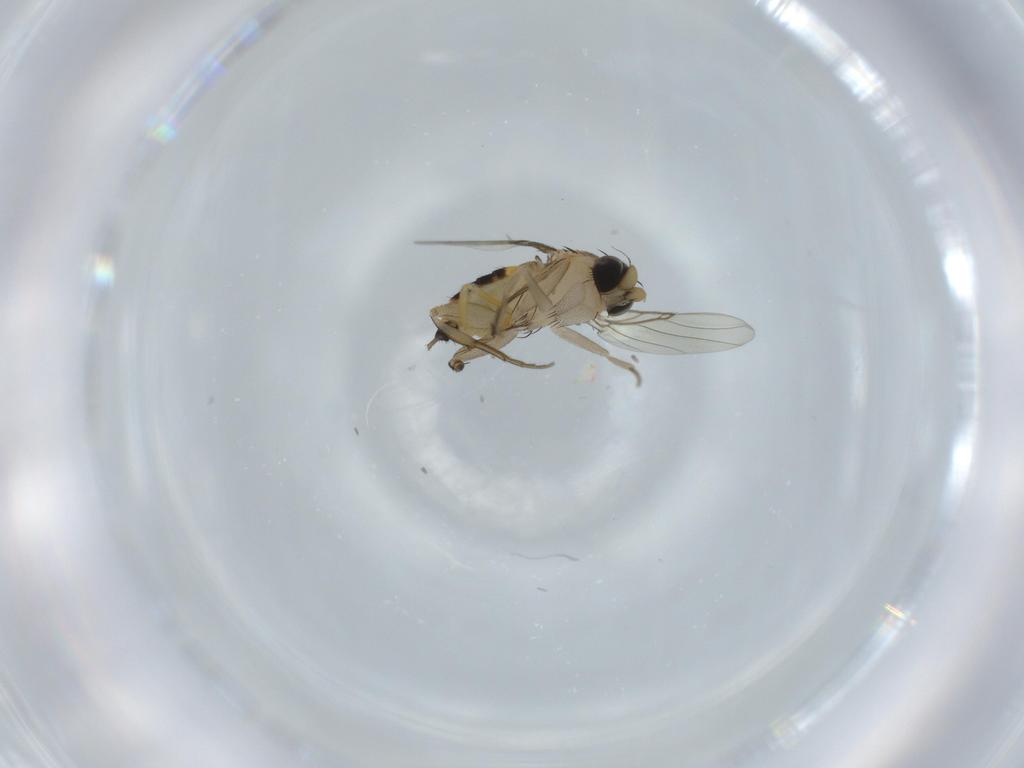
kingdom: Animalia
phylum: Arthropoda
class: Insecta
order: Diptera
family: Phoridae
